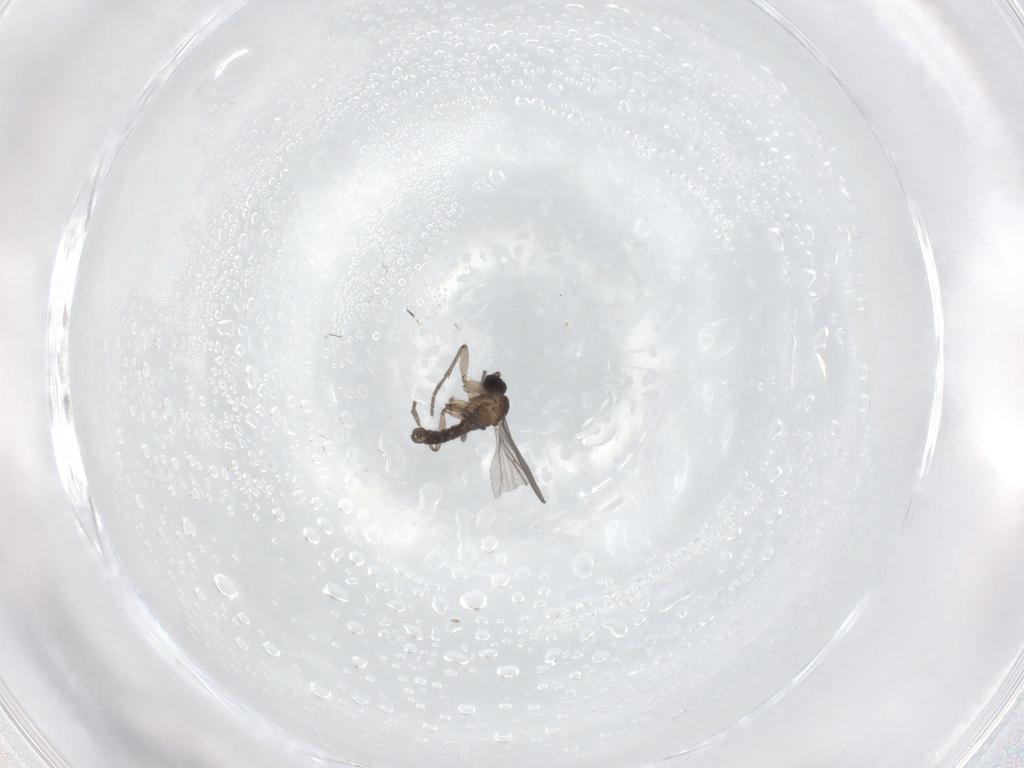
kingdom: Animalia
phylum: Arthropoda
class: Insecta
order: Diptera
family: Sciaridae
